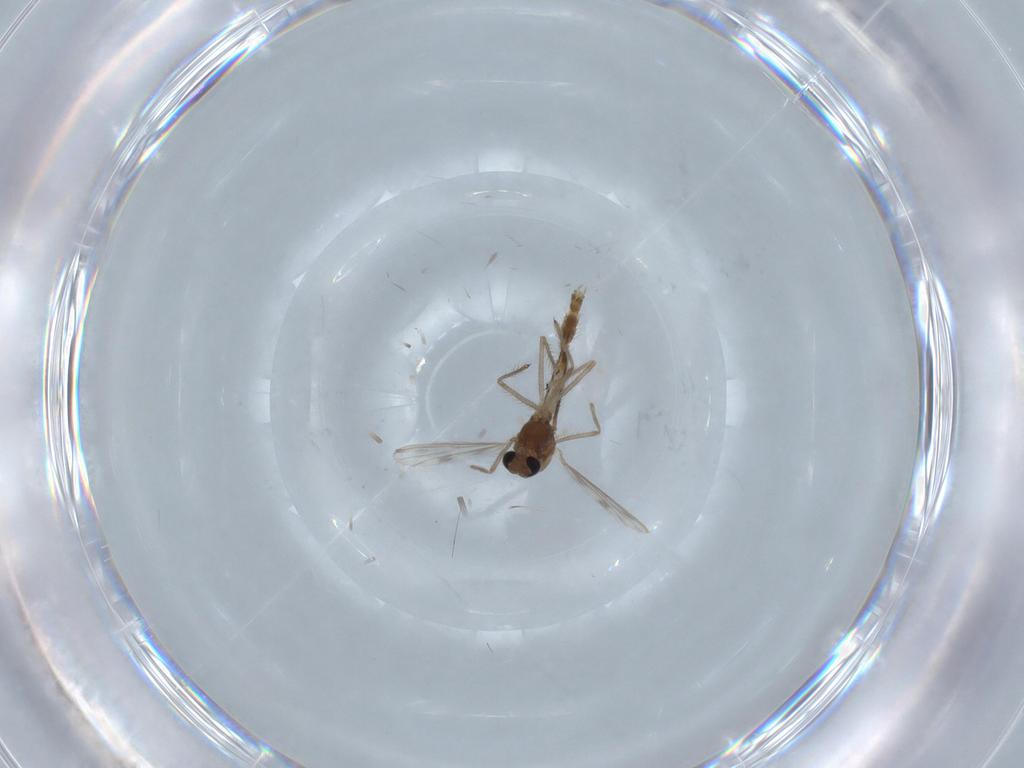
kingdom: Animalia
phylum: Arthropoda
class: Insecta
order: Diptera
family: Chironomidae
